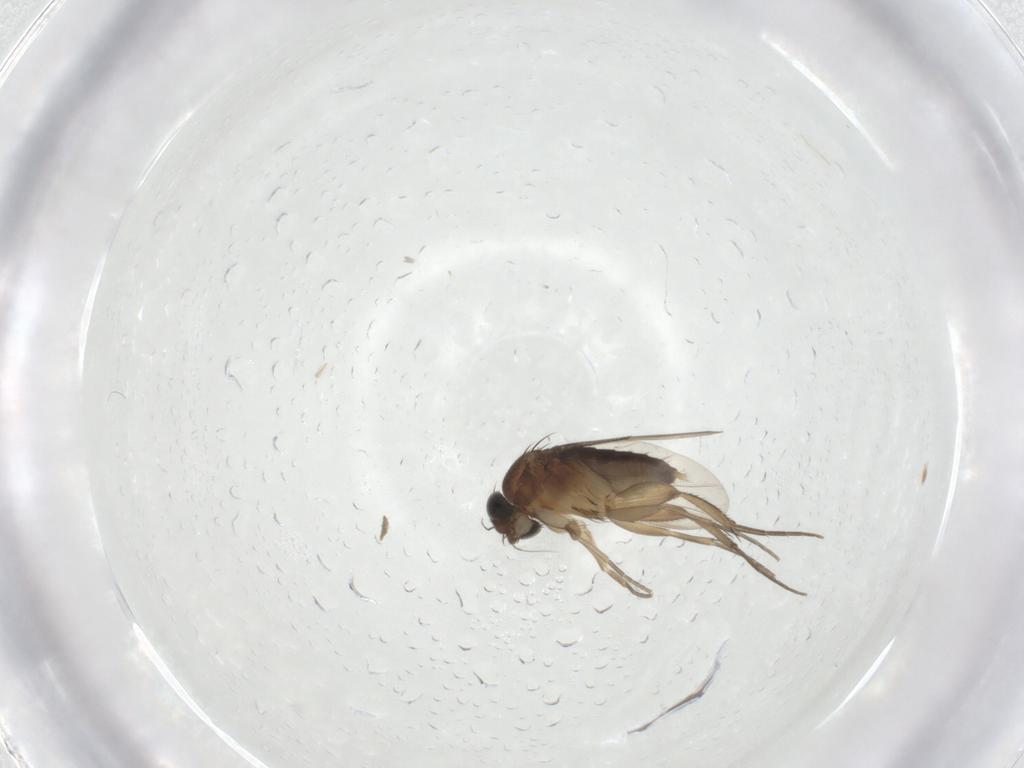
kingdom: Animalia
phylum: Arthropoda
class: Insecta
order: Diptera
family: Phoridae
